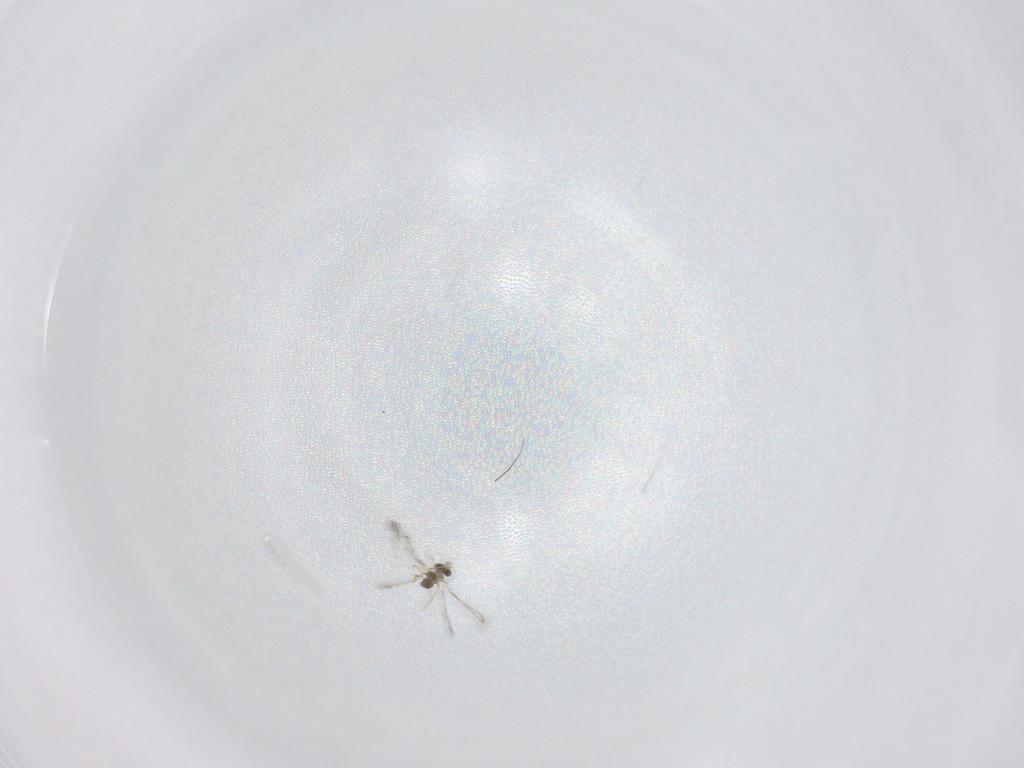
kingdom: Animalia
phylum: Arthropoda
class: Insecta
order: Hymenoptera
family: Mymaridae
